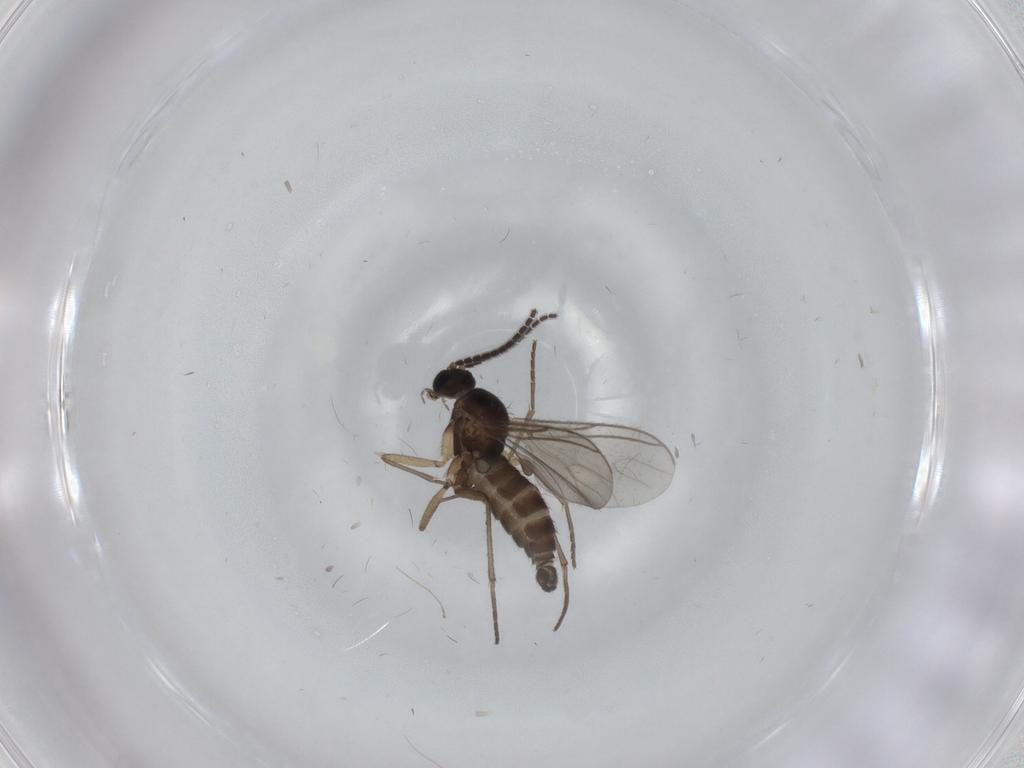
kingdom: Animalia
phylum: Arthropoda
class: Insecta
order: Diptera
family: Sciaridae
